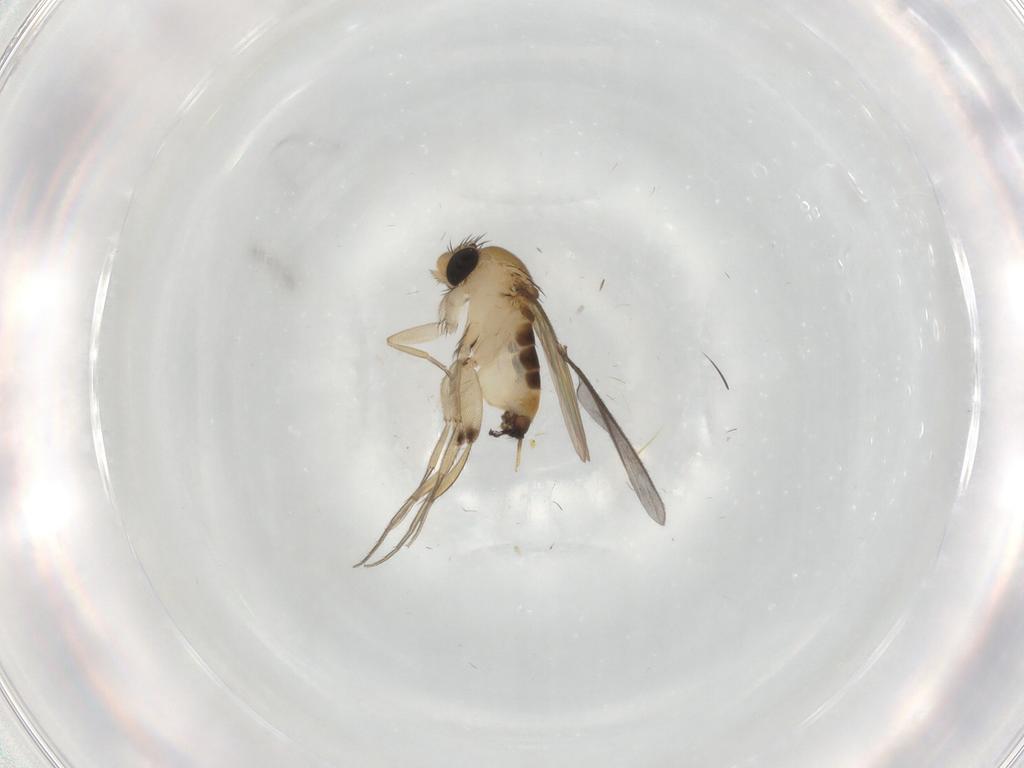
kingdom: Animalia
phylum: Arthropoda
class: Insecta
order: Diptera
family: Sciaridae
